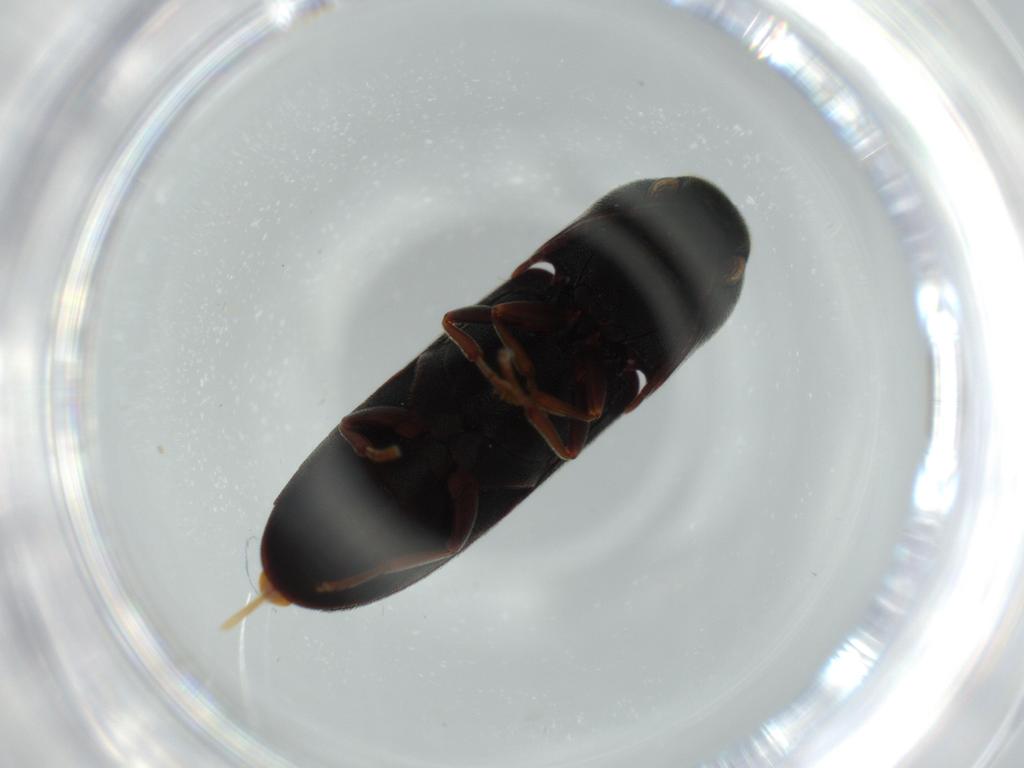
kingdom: Animalia
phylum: Arthropoda
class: Insecta
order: Coleoptera
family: Eucnemidae
